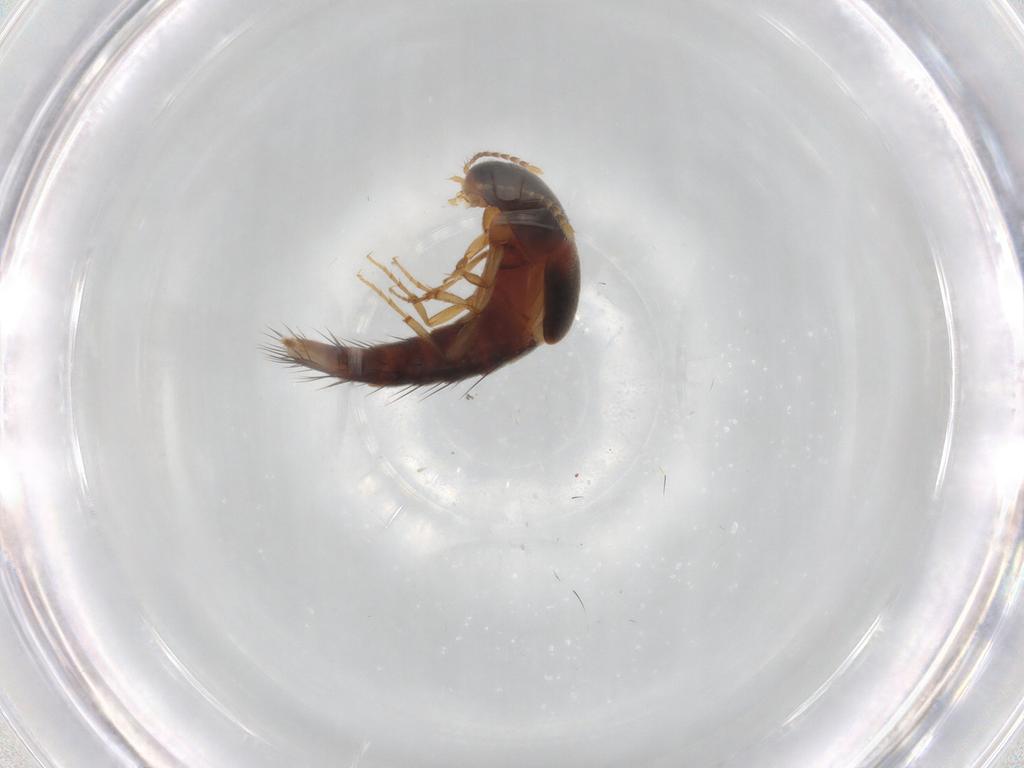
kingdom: Animalia
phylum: Arthropoda
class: Insecta
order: Coleoptera
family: Staphylinidae
